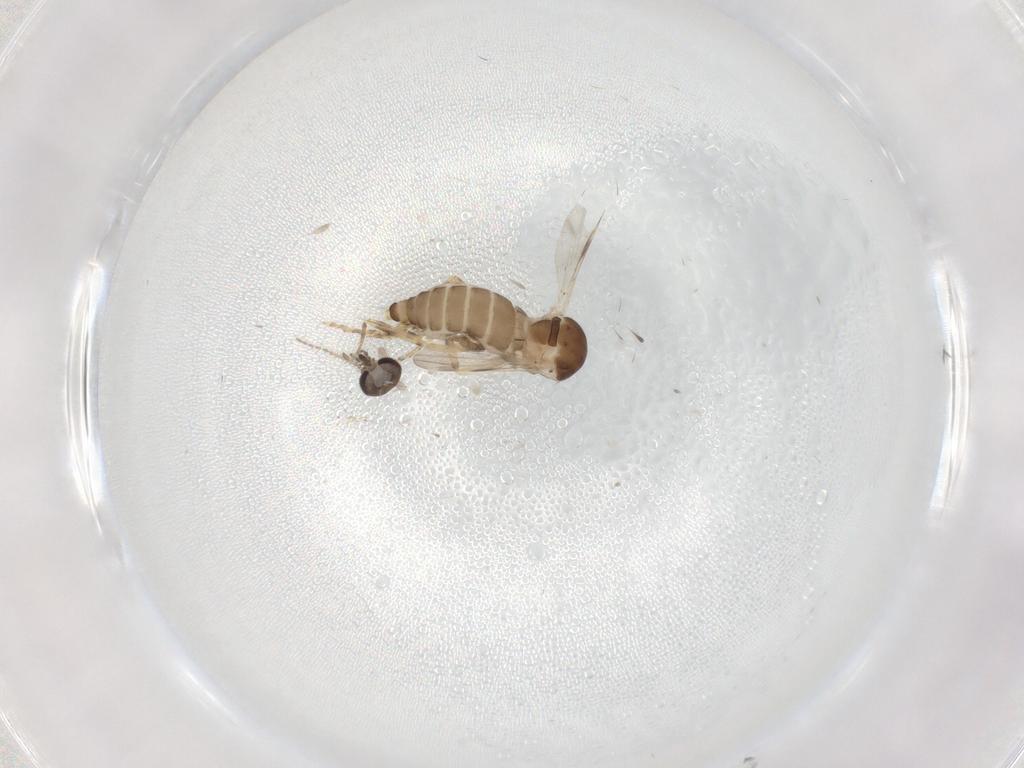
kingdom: Animalia
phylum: Arthropoda
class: Insecta
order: Diptera
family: Ceratopogonidae
